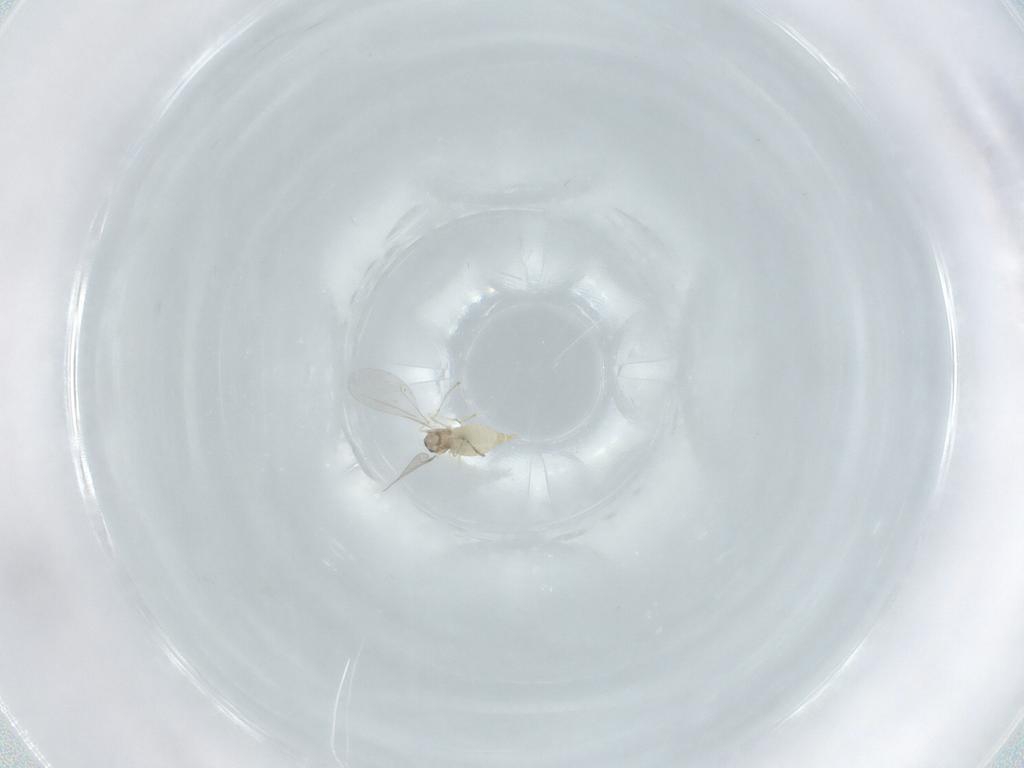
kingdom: Animalia
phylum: Arthropoda
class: Insecta
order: Diptera
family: Cecidomyiidae
